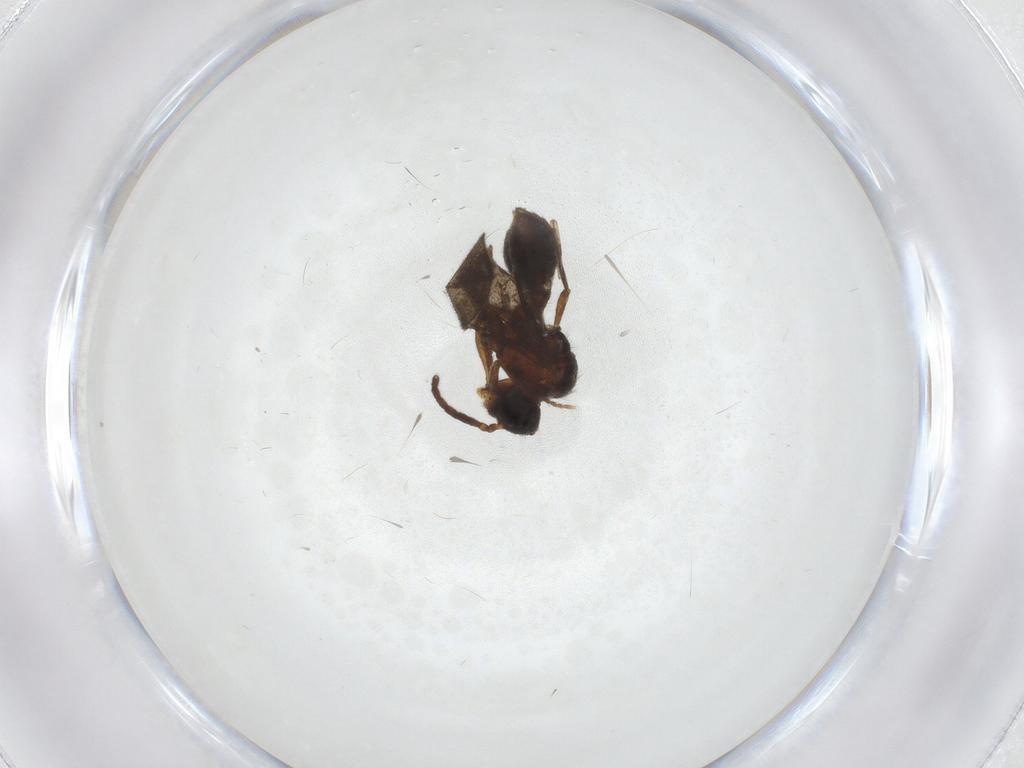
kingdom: Animalia
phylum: Arthropoda
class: Insecta
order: Hymenoptera
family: Formicidae
